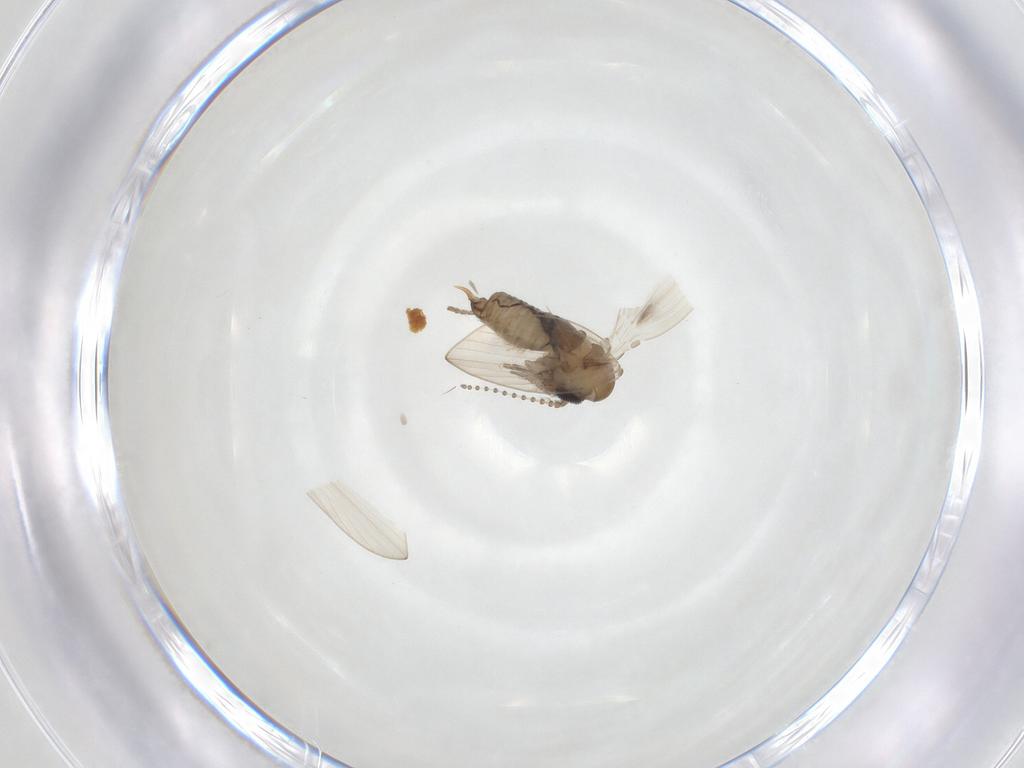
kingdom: Animalia
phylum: Arthropoda
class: Insecta
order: Diptera
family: Psychodidae
